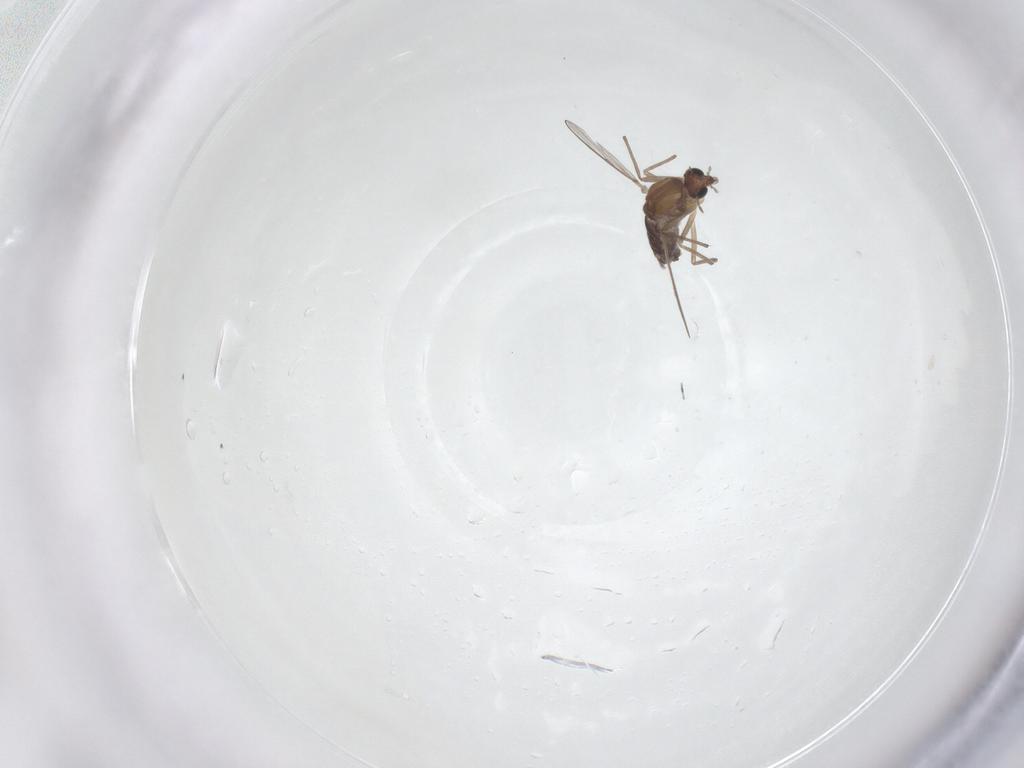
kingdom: Animalia
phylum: Arthropoda
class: Insecta
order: Diptera
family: Chironomidae
